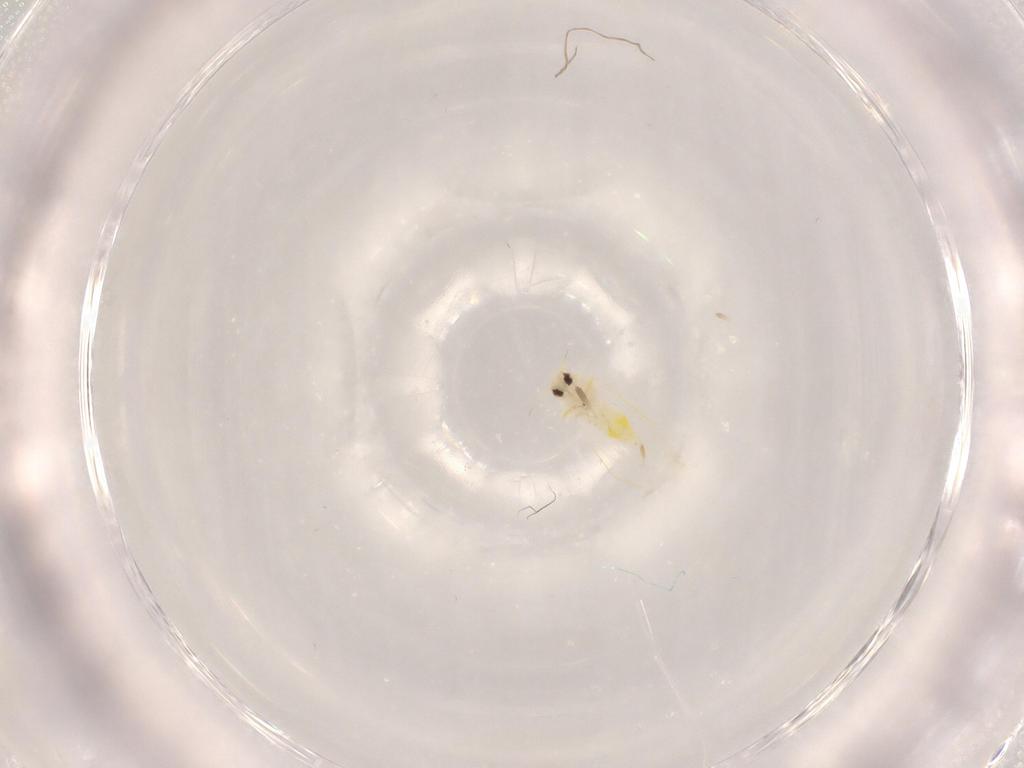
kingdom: Animalia
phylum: Arthropoda
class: Insecta
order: Hemiptera
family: Aleyrodidae
